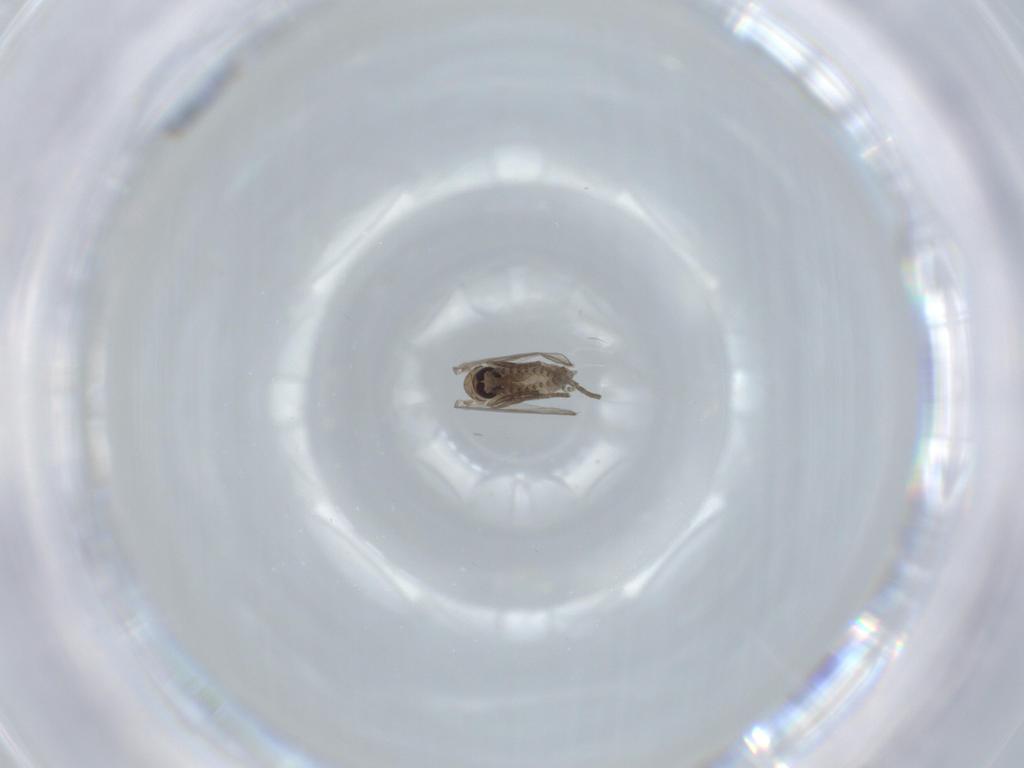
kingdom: Animalia
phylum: Arthropoda
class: Insecta
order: Diptera
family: Psychodidae
